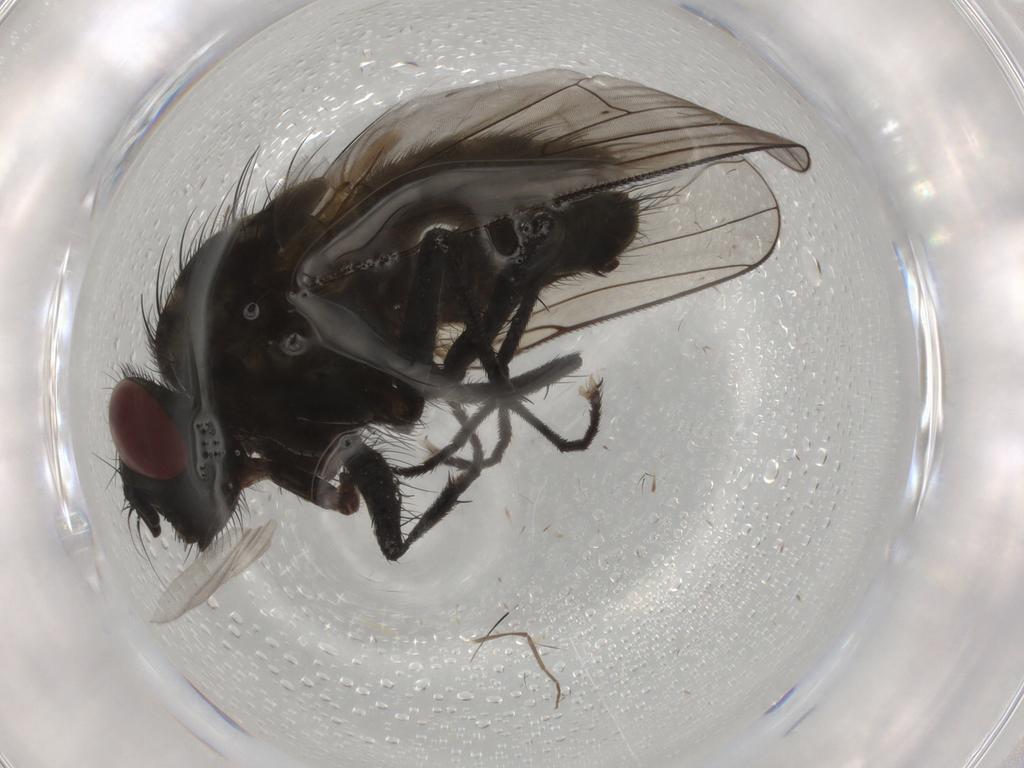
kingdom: Animalia
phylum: Arthropoda
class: Insecta
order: Diptera
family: Muscidae
